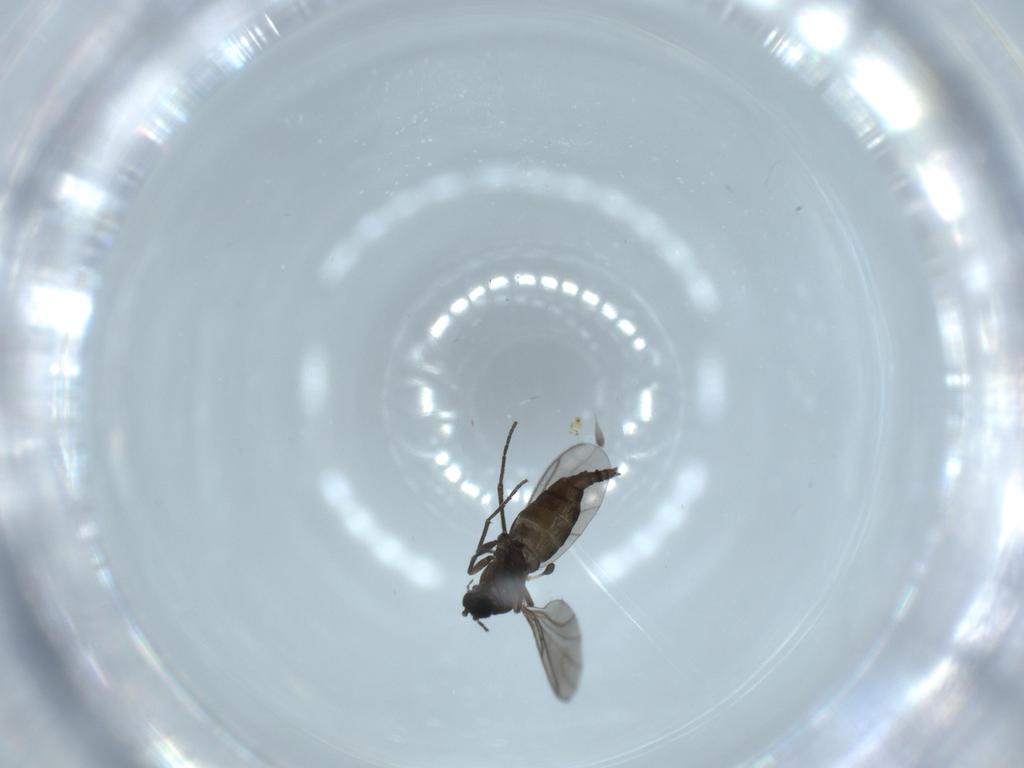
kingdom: Animalia
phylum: Arthropoda
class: Insecta
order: Diptera
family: Sciaridae
